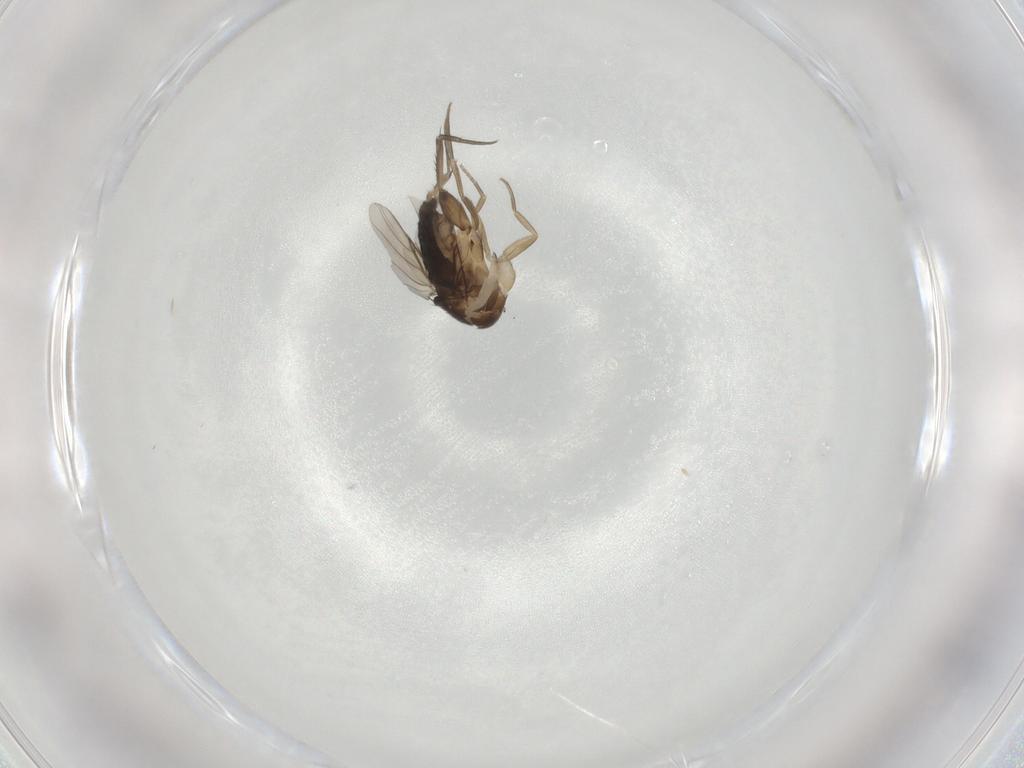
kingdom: Animalia
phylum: Arthropoda
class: Insecta
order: Diptera
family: Phoridae
